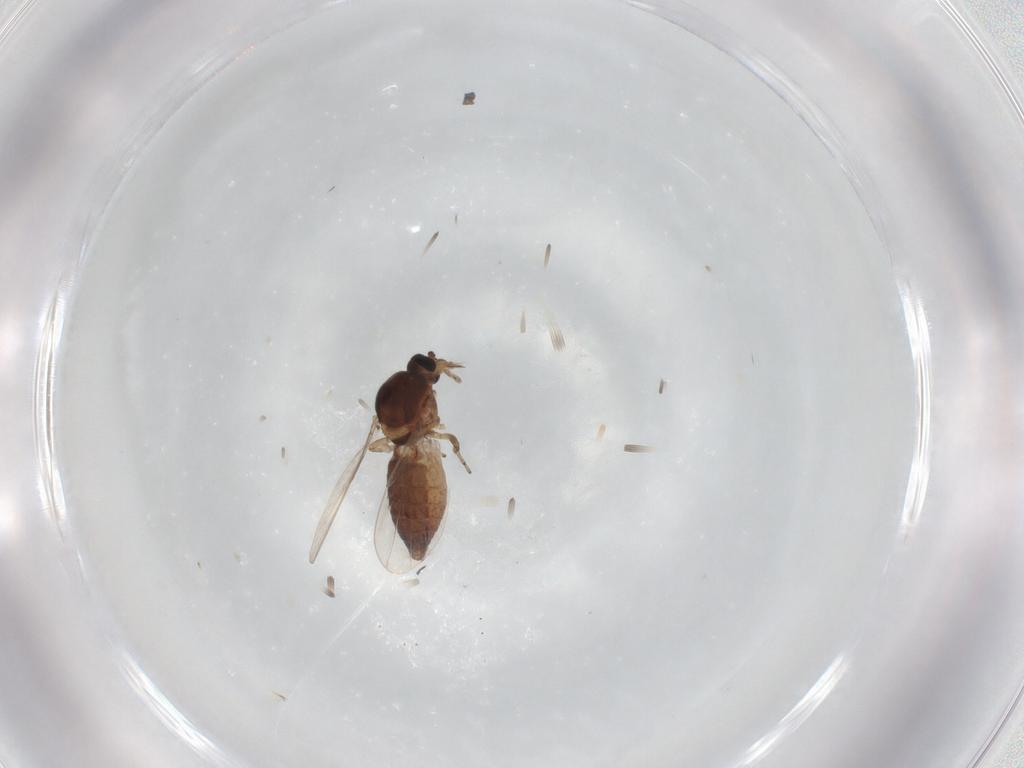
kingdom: Animalia
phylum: Arthropoda
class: Insecta
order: Diptera
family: Ceratopogonidae
